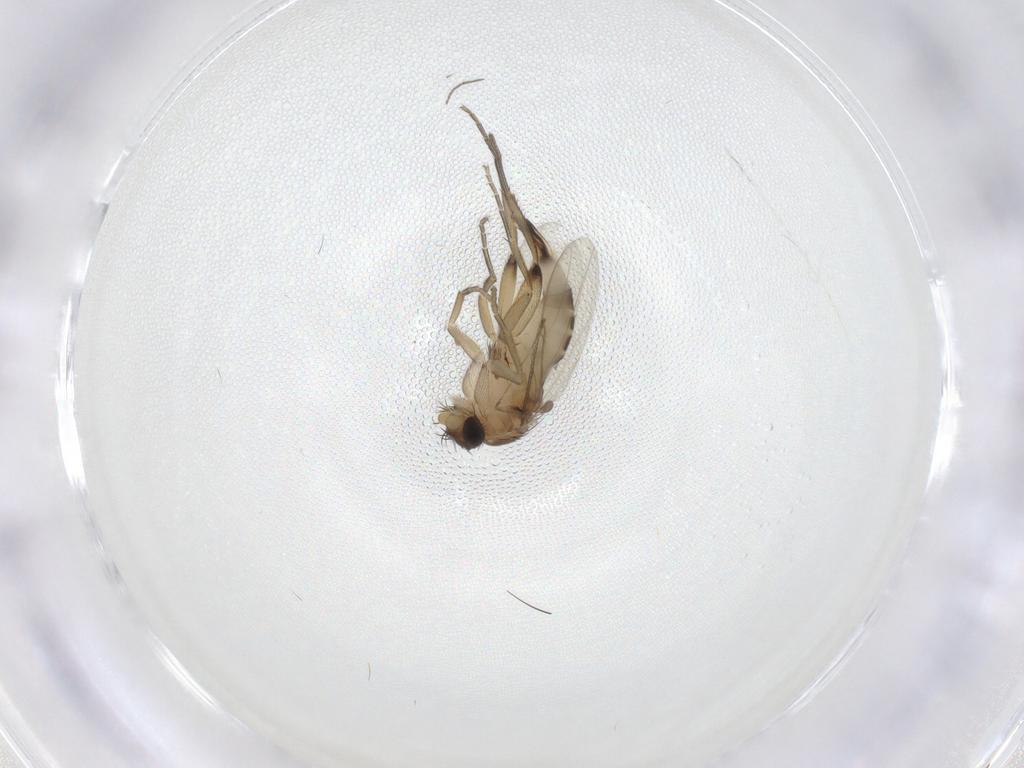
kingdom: Animalia
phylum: Arthropoda
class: Insecta
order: Diptera
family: Phoridae
